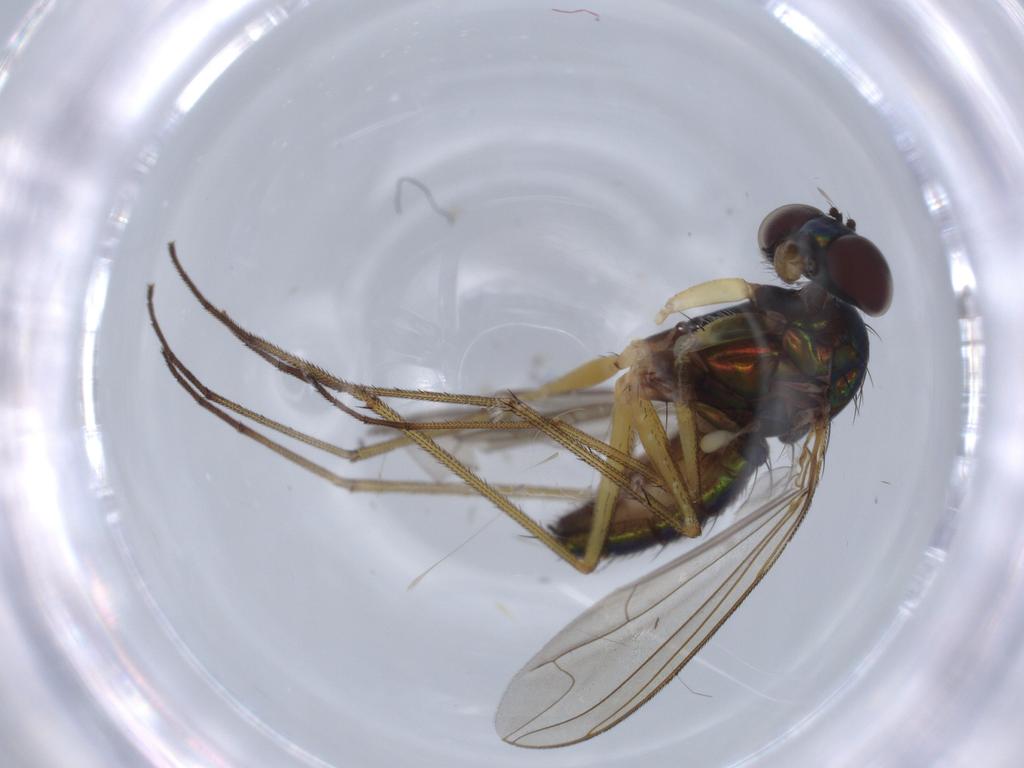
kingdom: Animalia
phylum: Arthropoda
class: Insecta
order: Diptera
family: Dolichopodidae
